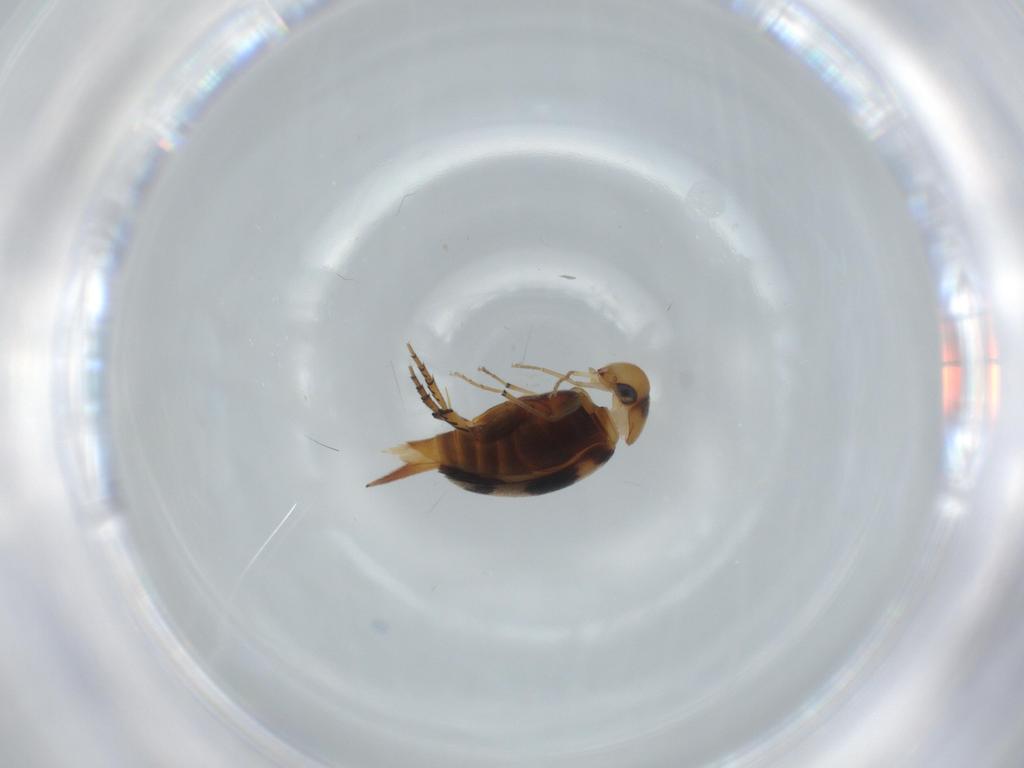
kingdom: Animalia
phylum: Arthropoda
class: Insecta
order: Coleoptera
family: Mordellidae
